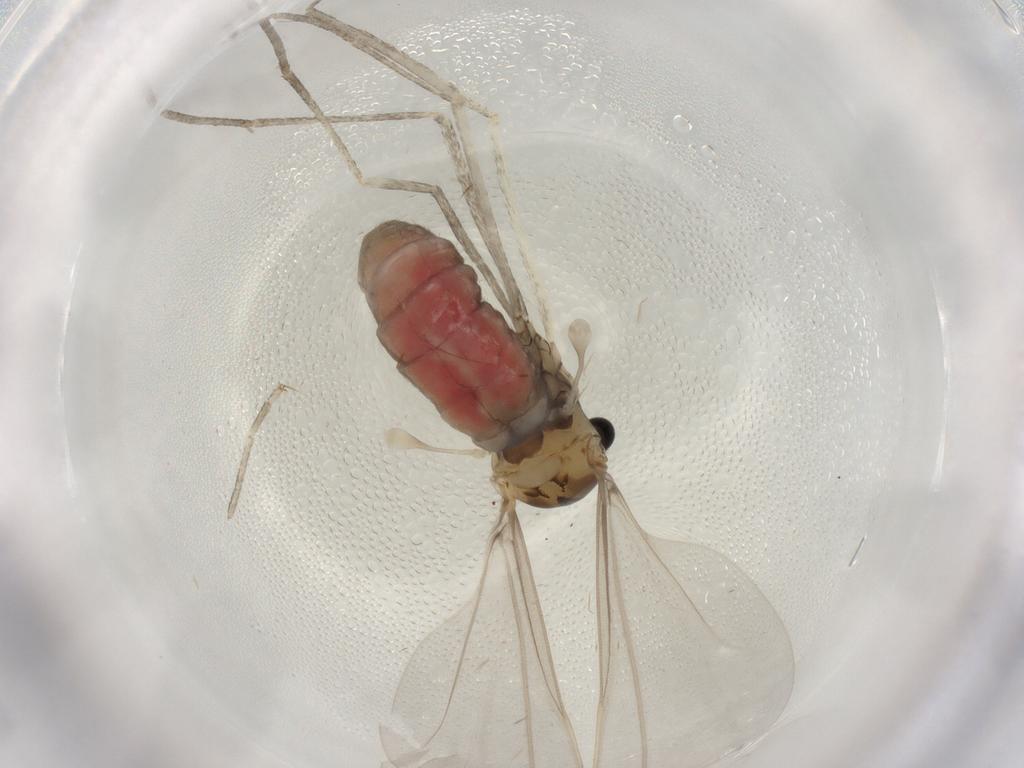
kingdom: Animalia
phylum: Arthropoda
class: Insecta
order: Diptera
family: Cecidomyiidae
